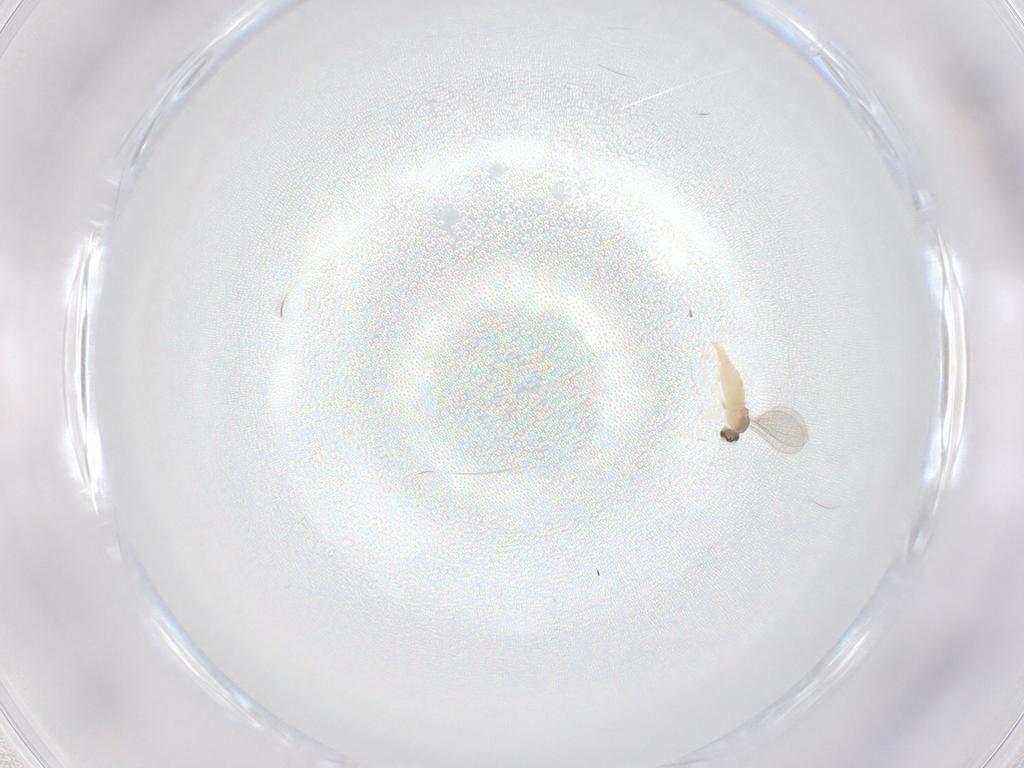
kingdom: Animalia
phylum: Arthropoda
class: Insecta
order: Diptera
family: Cecidomyiidae
